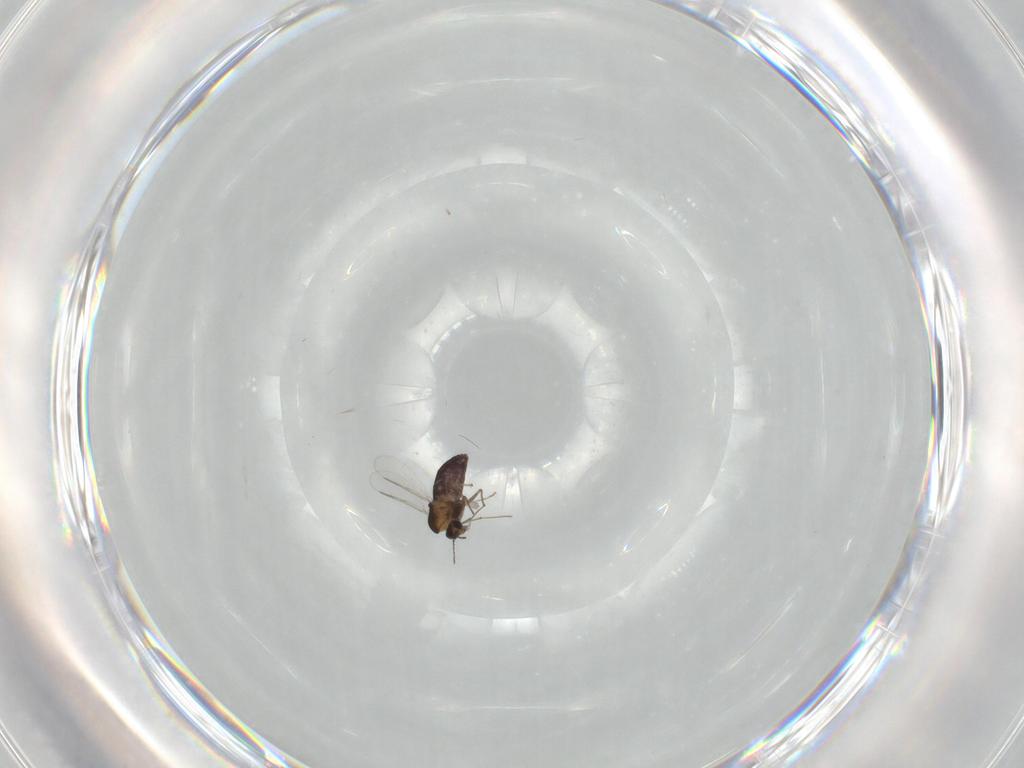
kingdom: Animalia
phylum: Arthropoda
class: Insecta
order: Diptera
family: Chironomidae
